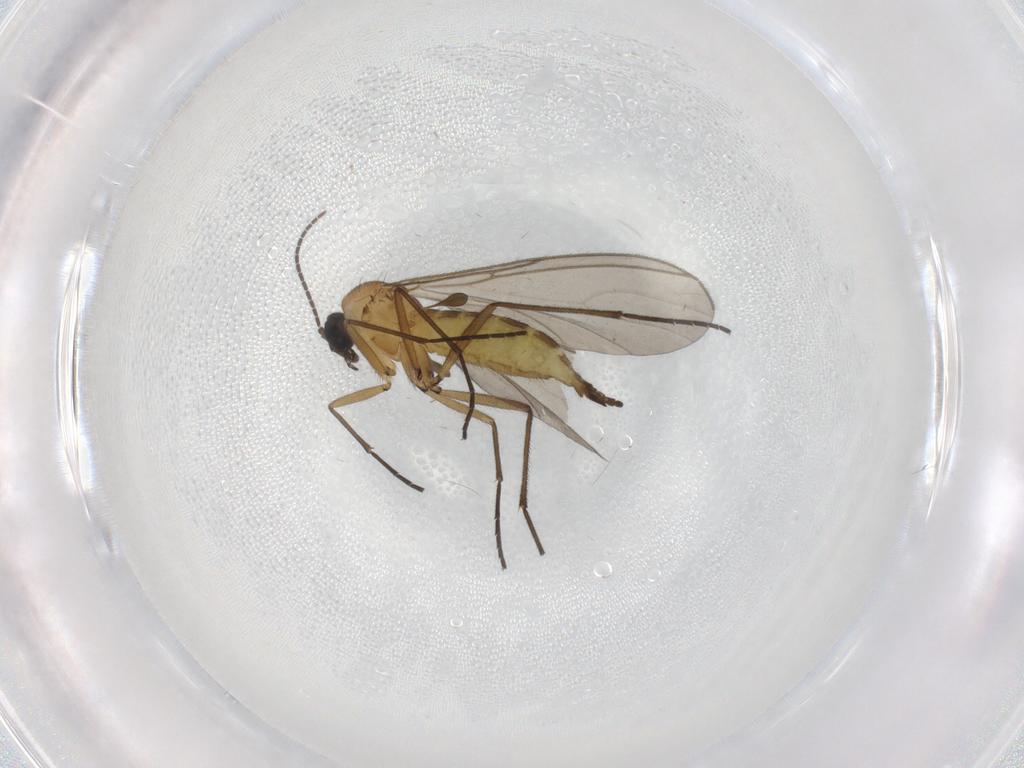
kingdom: Animalia
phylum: Arthropoda
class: Insecta
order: Diptera
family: Sciaridae
